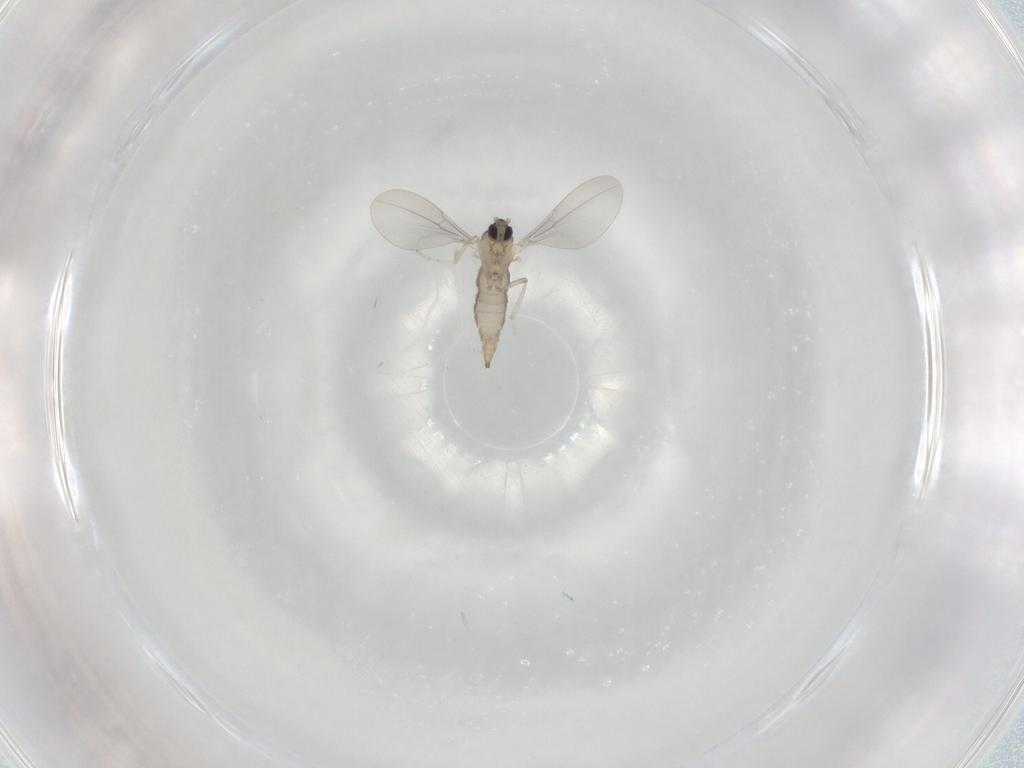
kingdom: Animalia
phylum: Arthropoda
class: Insecta
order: Diptera
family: Cecidomyiidae
